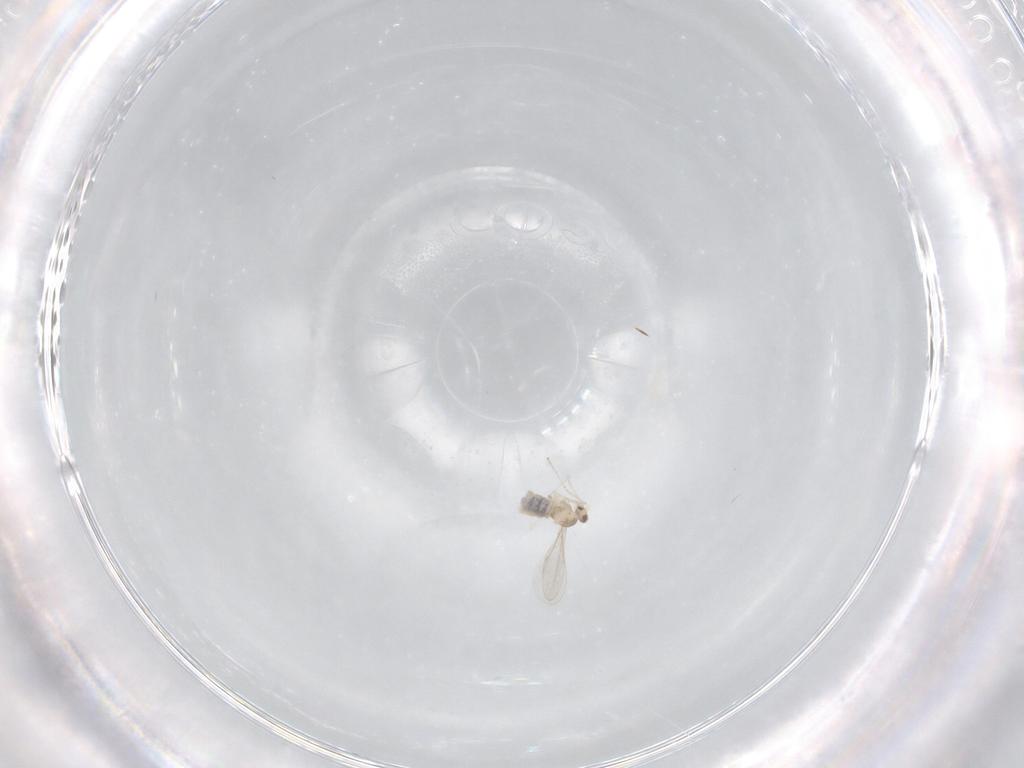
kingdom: Animalia
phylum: Arthropoda
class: Insecta
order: Diptera
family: Cecidomyiidae
